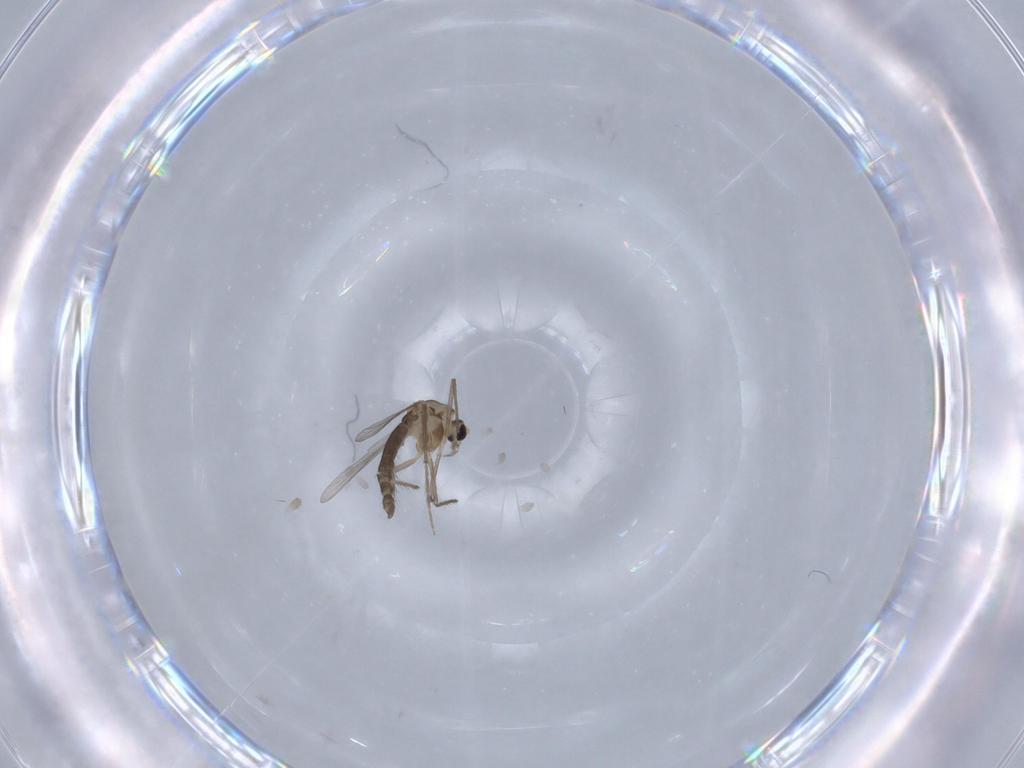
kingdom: Animalia
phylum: Arthropoda
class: Insecta
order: Diptera
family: Chironomidae
